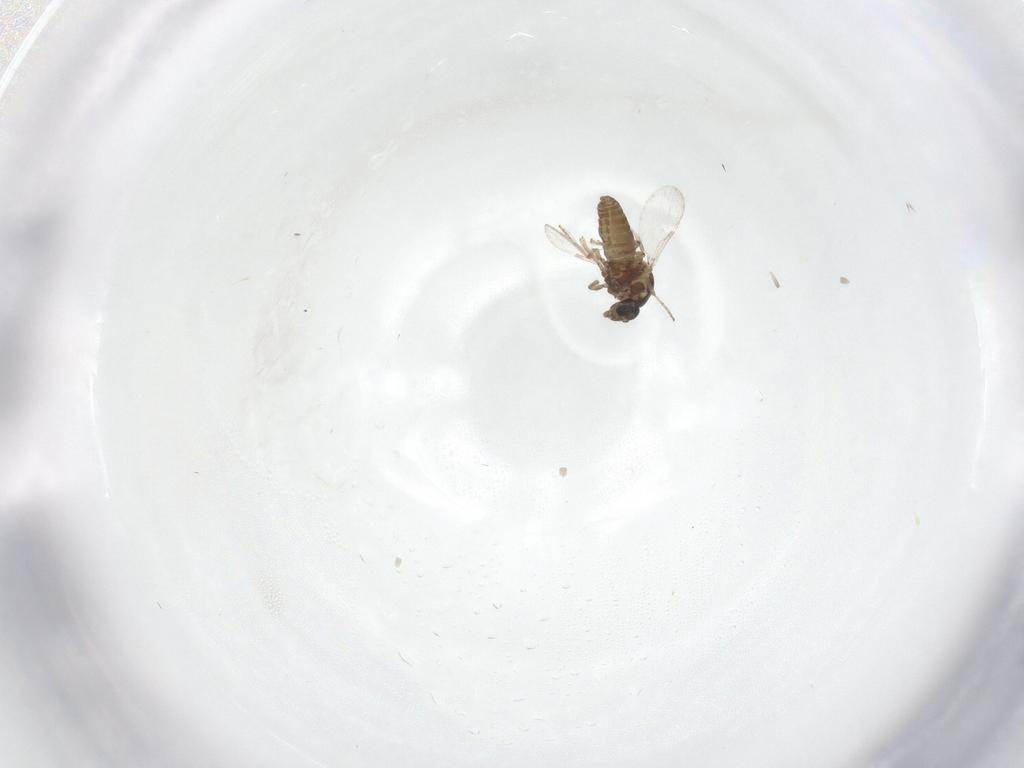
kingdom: Animalia
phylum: Arthropoda
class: Insecta
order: Diptera
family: Ceratopogonidae
